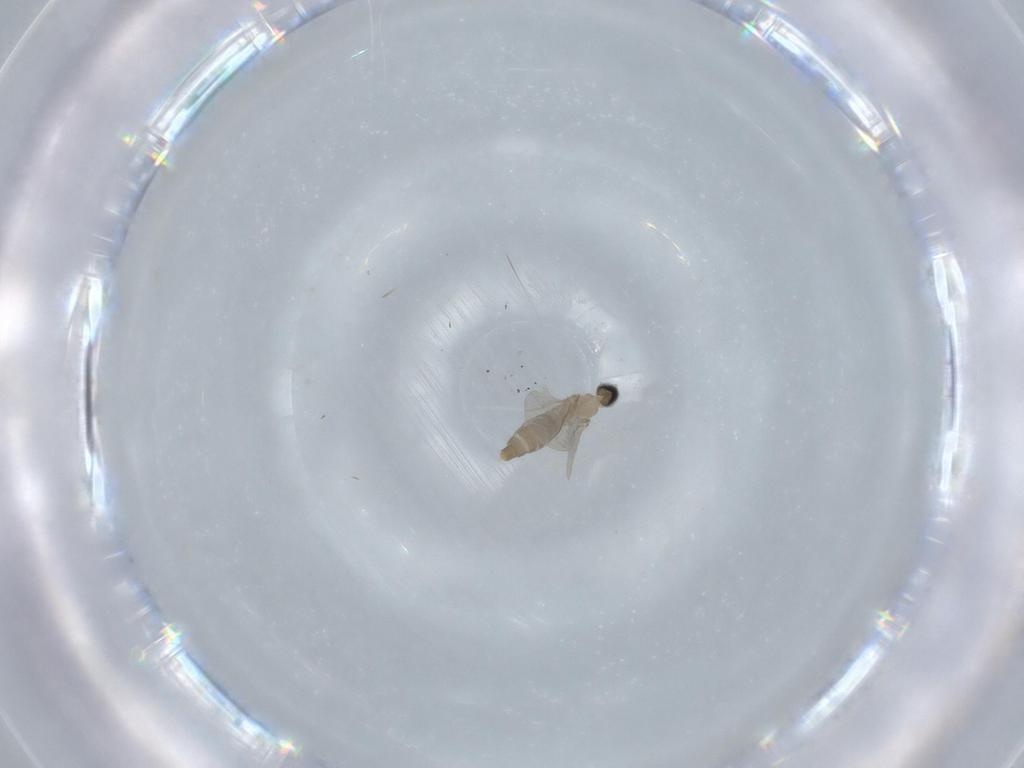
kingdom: Animalia
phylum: Arthropoda
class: Insecta
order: Diptera
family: Cecidomyiidae
